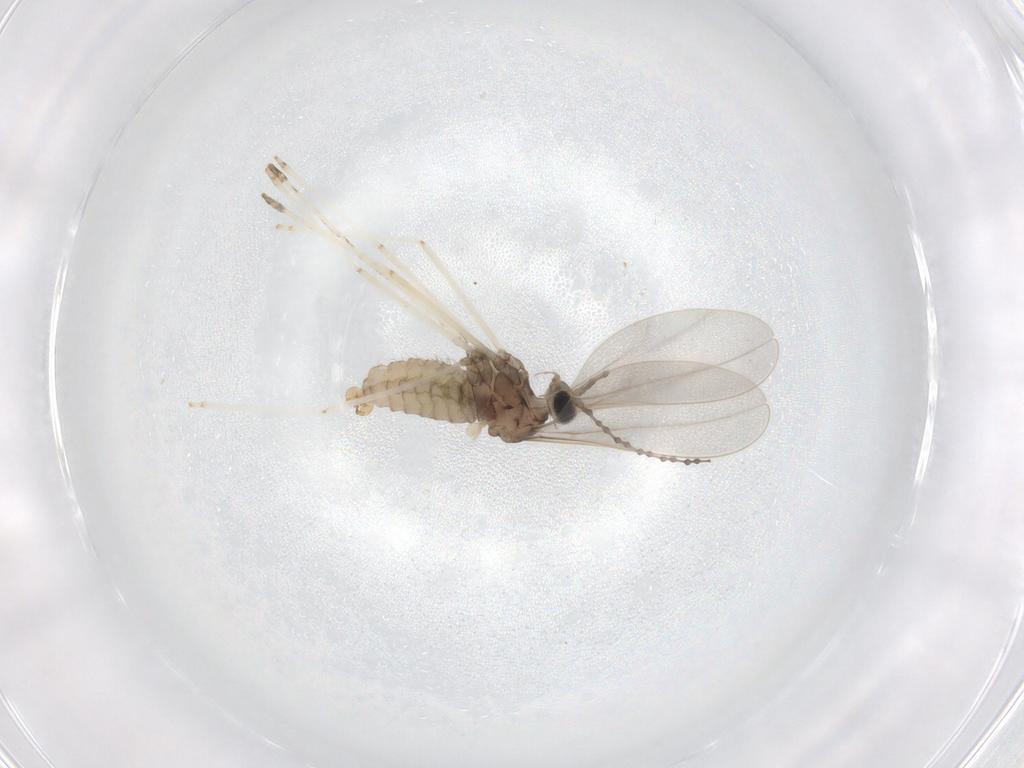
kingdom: Animalia
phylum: Arthropoda
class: Insecta
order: Diptera
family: Cecidomyiidae
